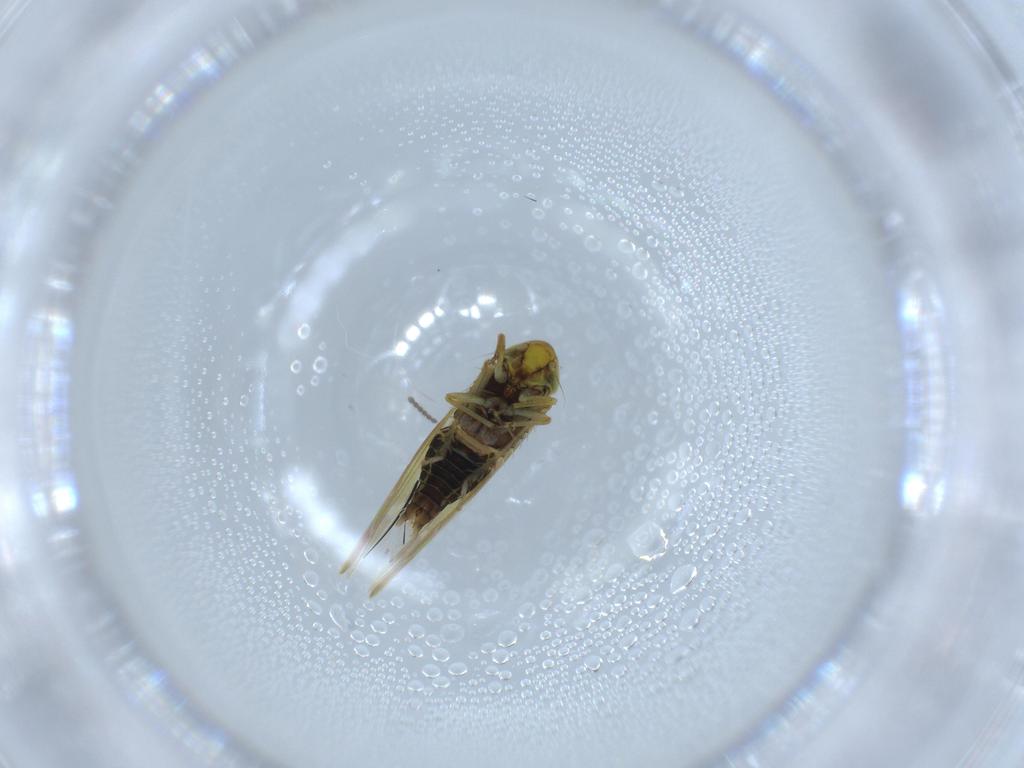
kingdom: Animalia
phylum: Arthropoda
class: Insecta
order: Hemiptera
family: Cicadellidae
